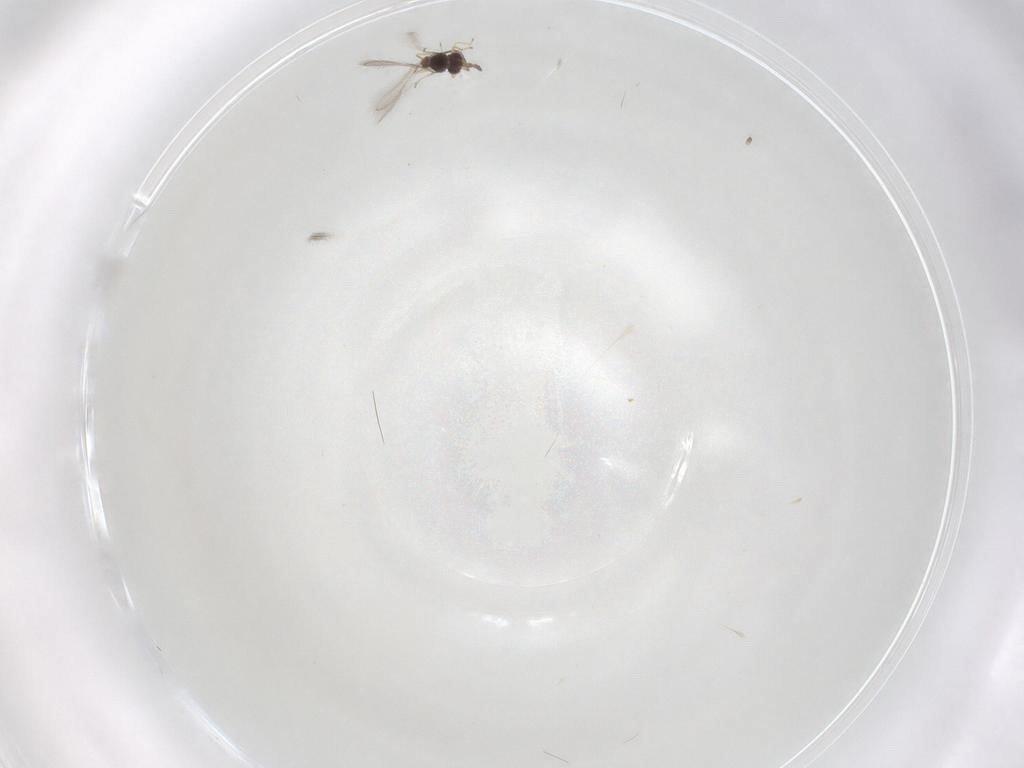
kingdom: Animalia
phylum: Arthropoda
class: Insecta
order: Hymenoptera
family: Mymaridae
